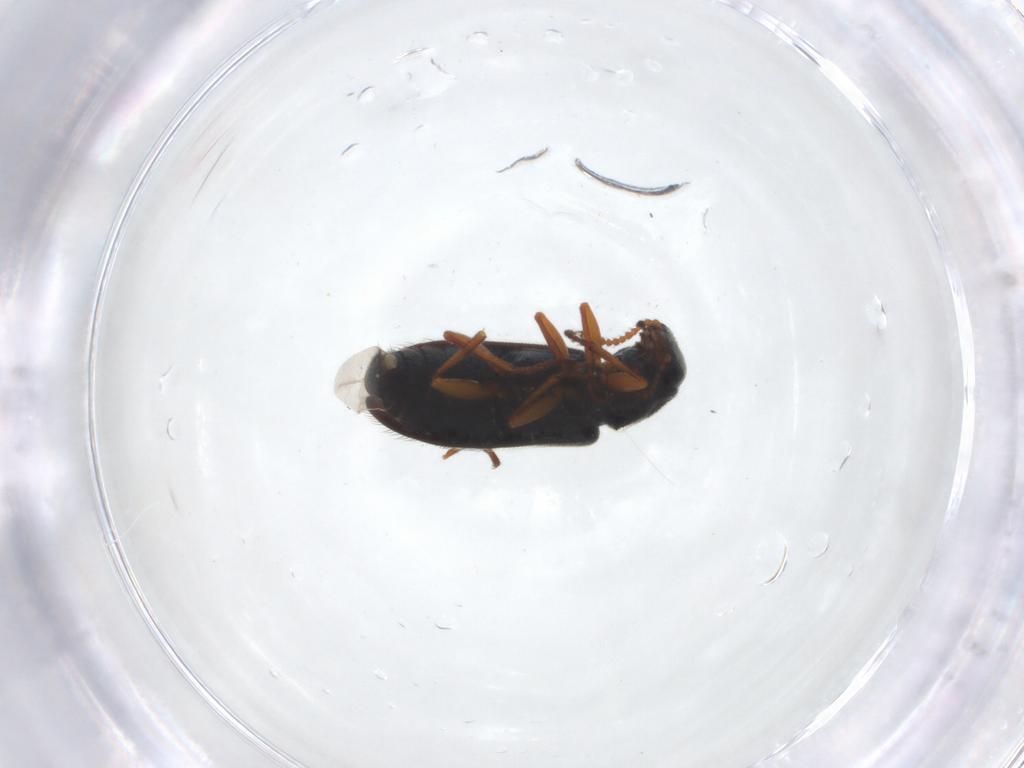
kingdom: Animalia
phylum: Arthropoda
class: Insecta
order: Coleoptera
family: Melyridae
